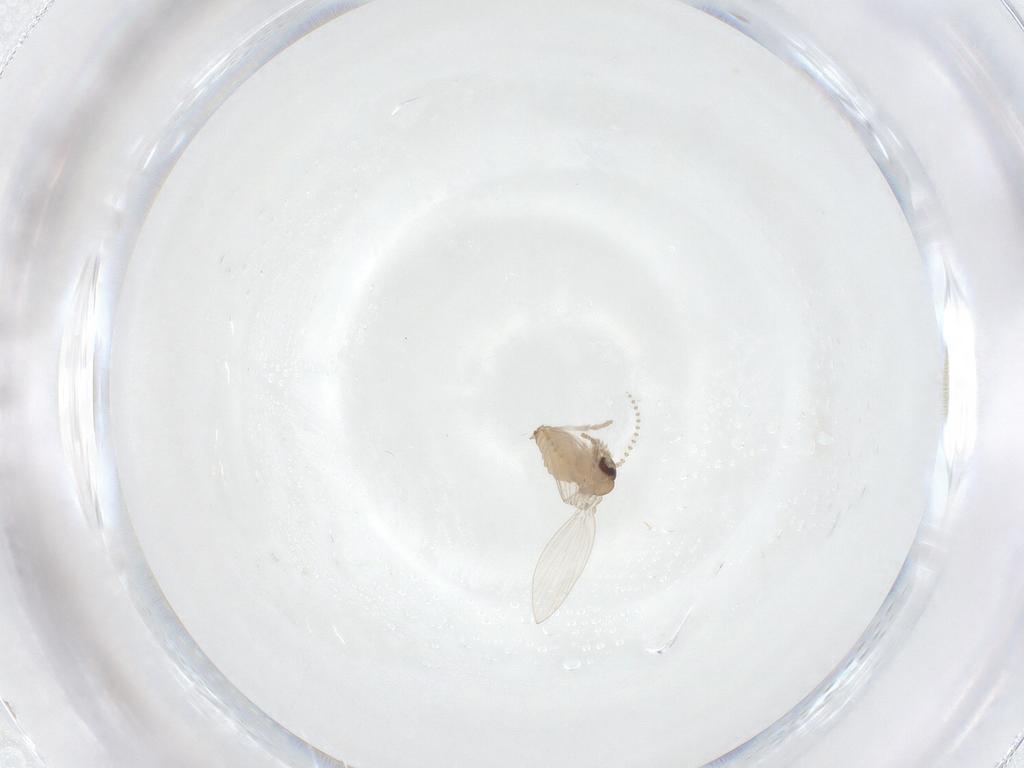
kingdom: Animalia
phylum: Arthropoda
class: Insecta
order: Diptera
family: Psychodidae
